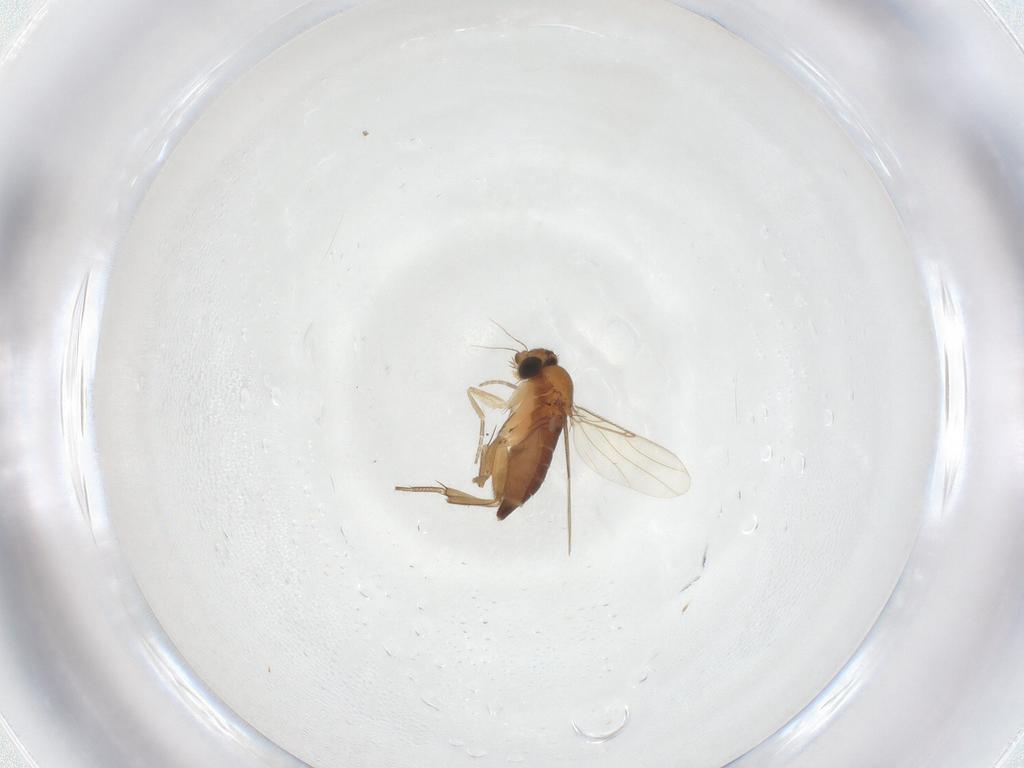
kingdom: Animalia
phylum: Arthropoda
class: Insecta
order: Diptera
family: Phoridae
